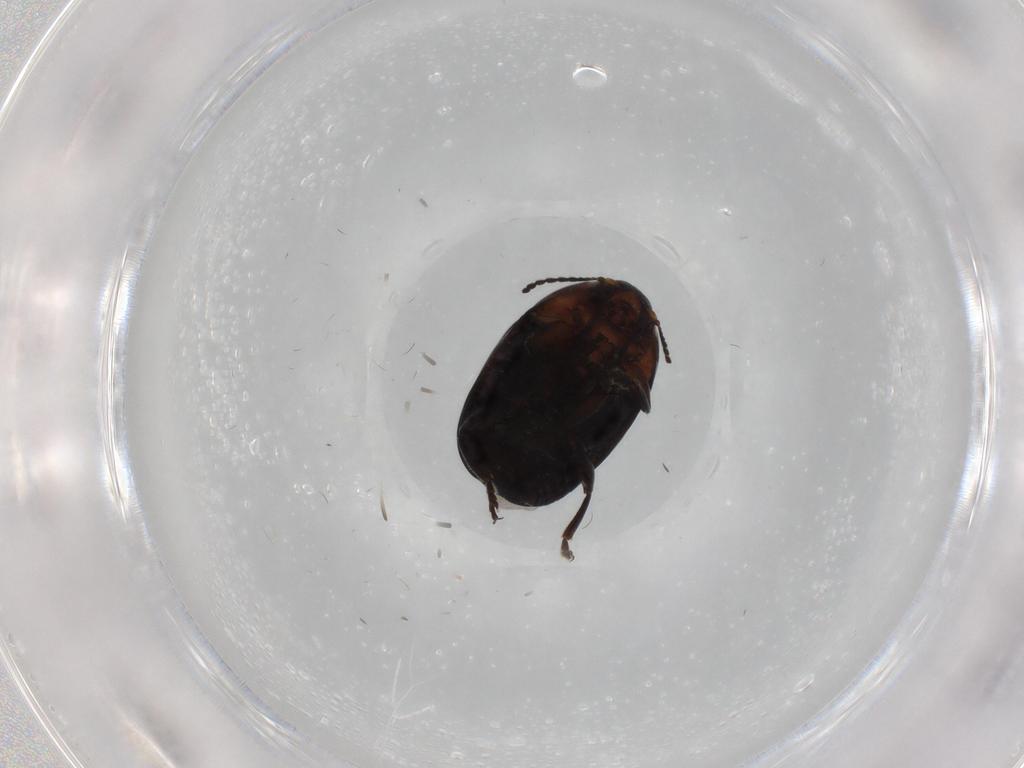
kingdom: Animalia
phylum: Arthropoda
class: Insecta
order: Coleoptera
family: Chrysomelidae
